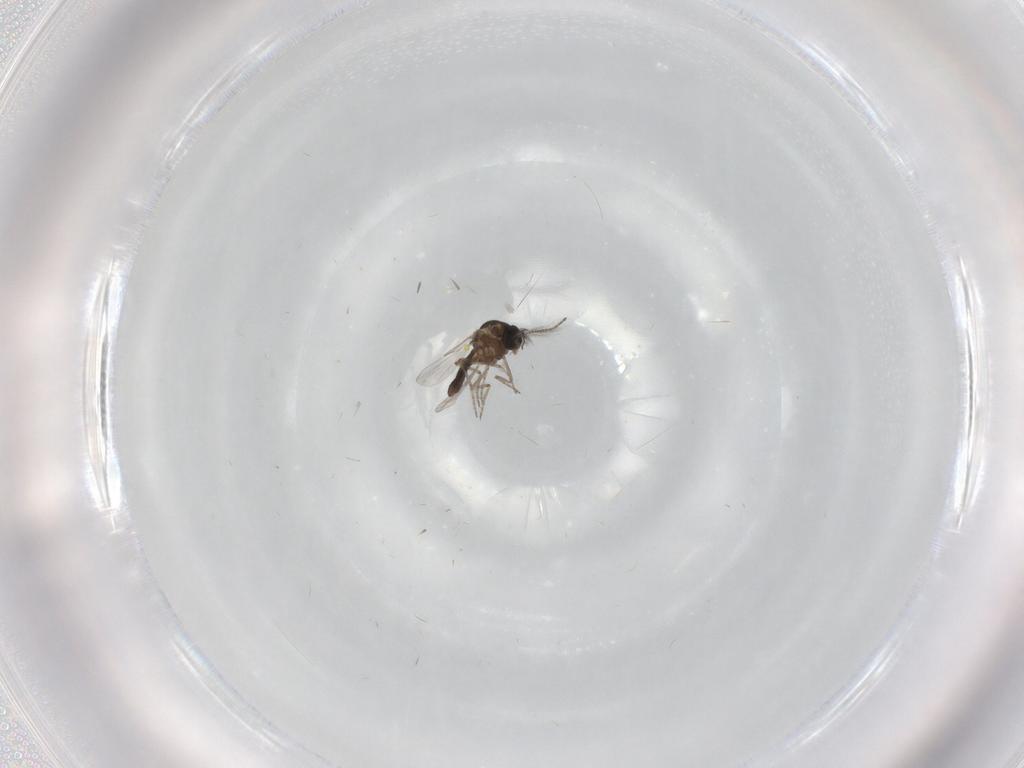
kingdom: Animalia
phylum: Arthropoda
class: Insecta
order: Diptera
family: Ceratopogonidae
